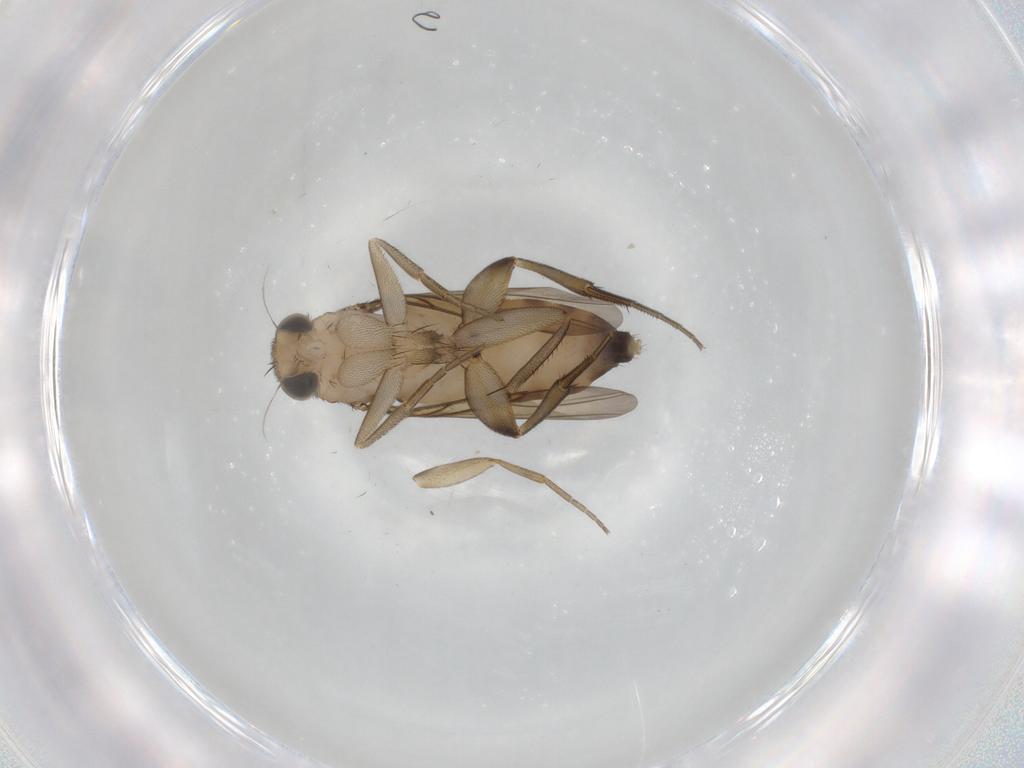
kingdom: Animalia
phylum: Arthropoda
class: Insecta
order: Diptera
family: Phoridae
